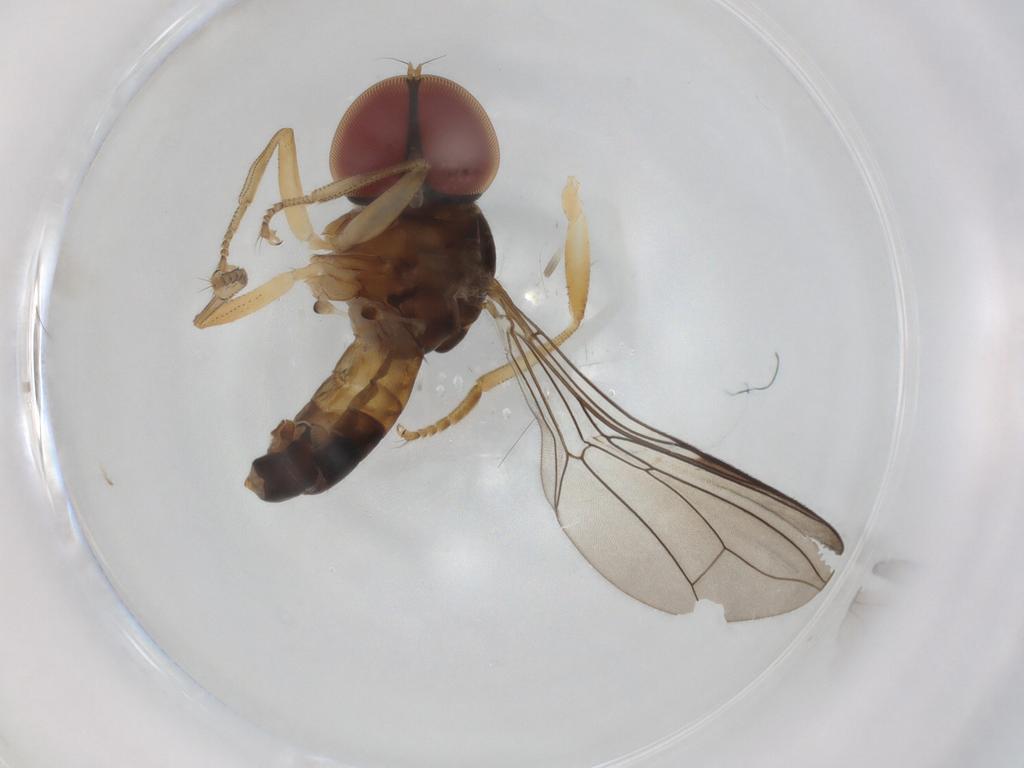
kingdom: Animalia
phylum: Arthropoda
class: Insecta
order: Diptera
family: Pipunculidae
